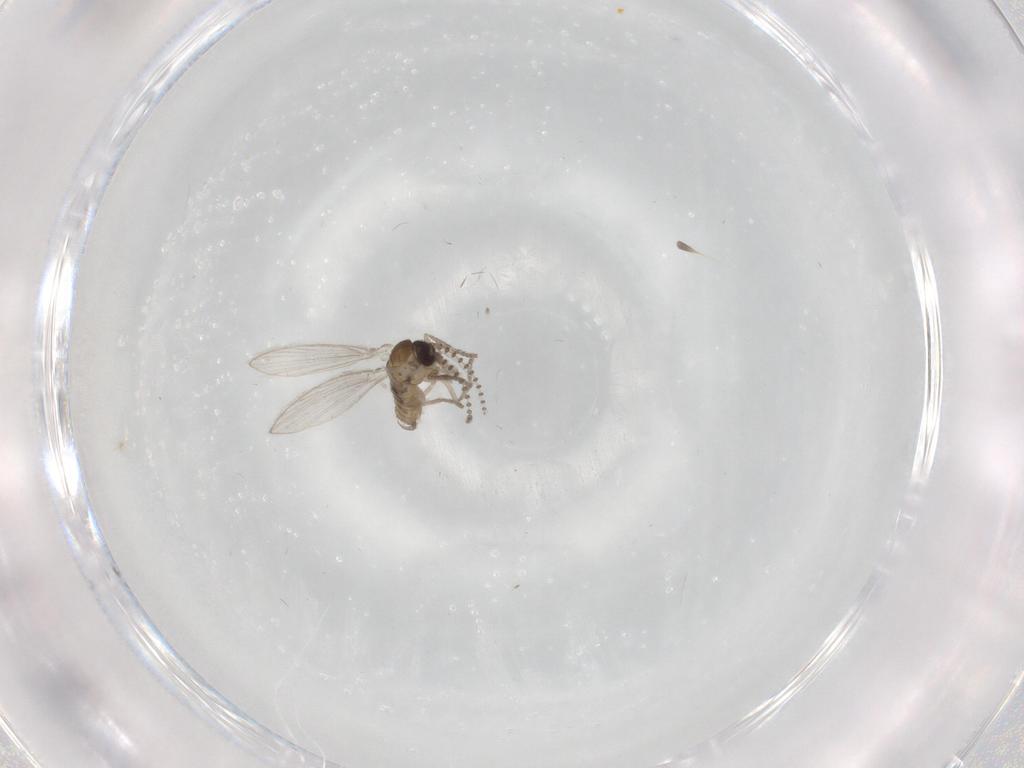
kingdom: Animalia
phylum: Arthropoda
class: Insecta
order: Diptera
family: Psychodidae
